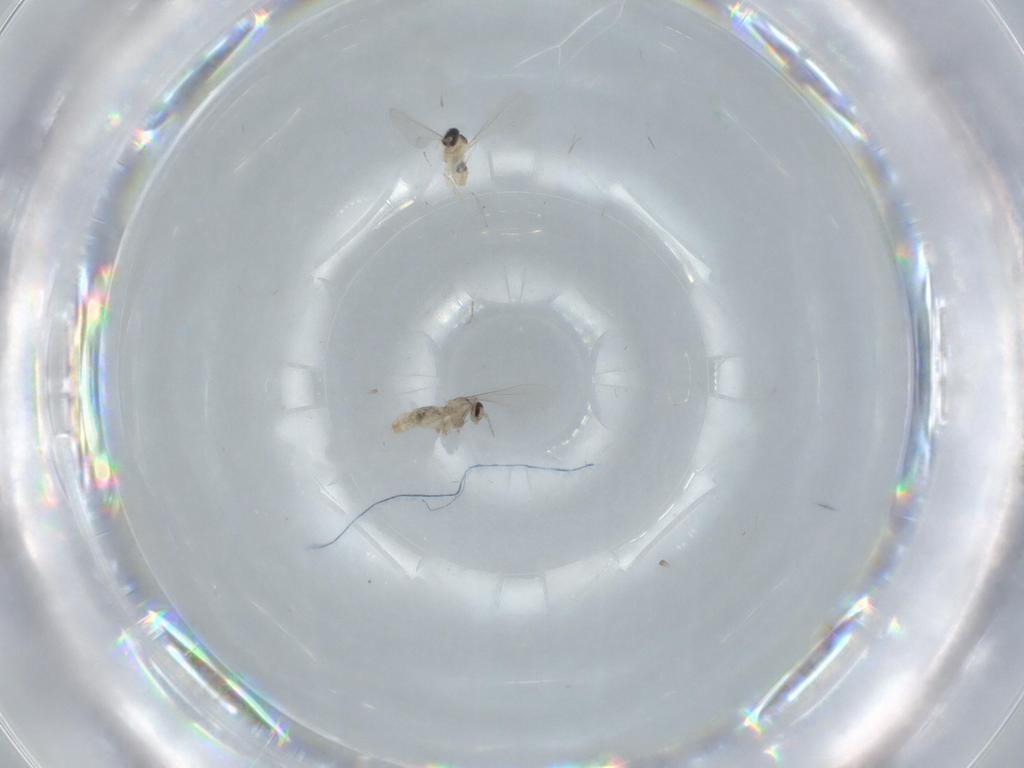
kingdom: Animalia
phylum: Arthropoda
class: Insecta
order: Diptera
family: Cecidomyiidae
